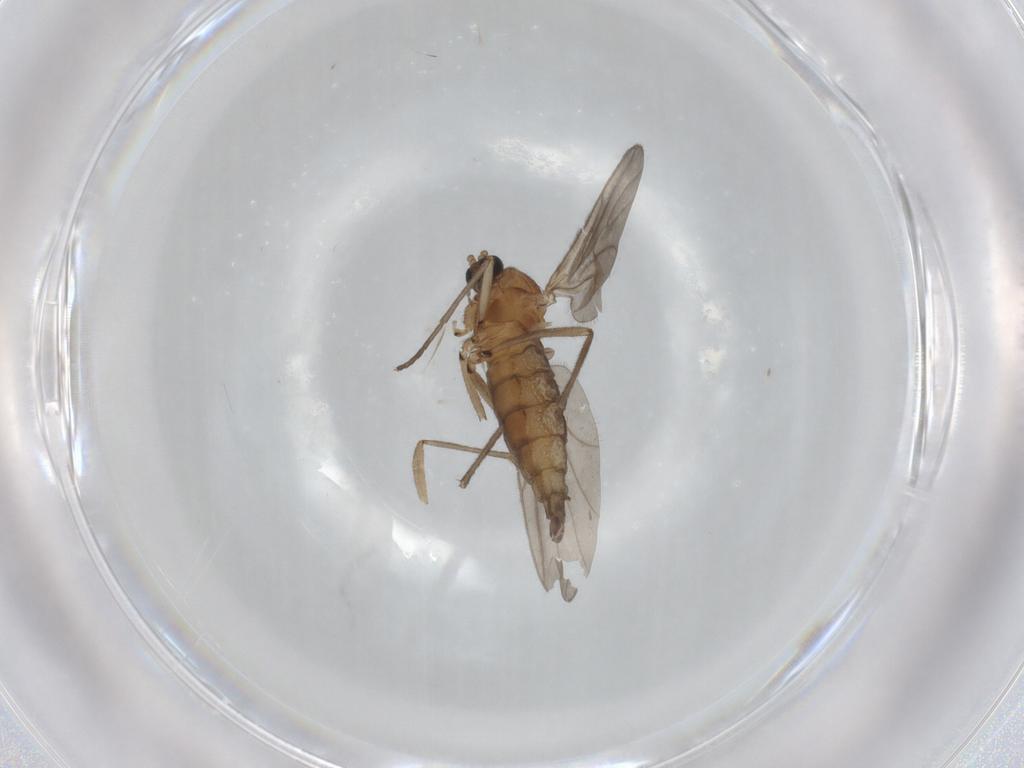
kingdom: Animalia
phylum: Arthropoda
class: Insecta
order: Diptera
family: Sciaridae
